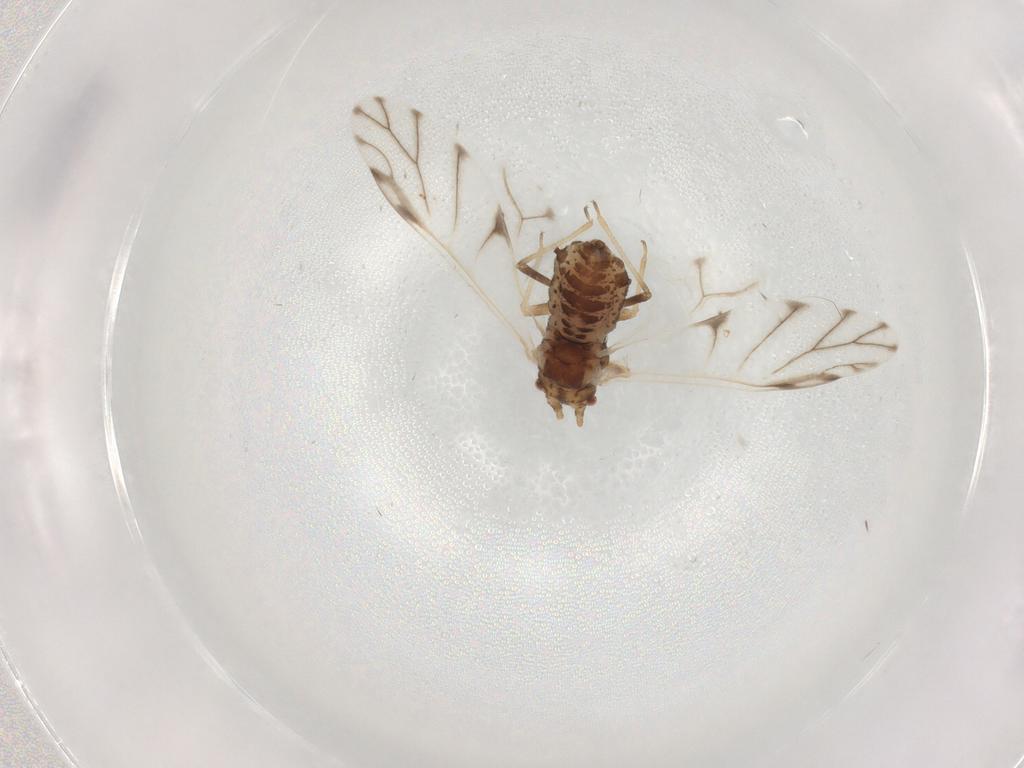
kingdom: Animalia
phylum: Arthropoda
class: Insecta
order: Hemiptera
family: Aphididae
